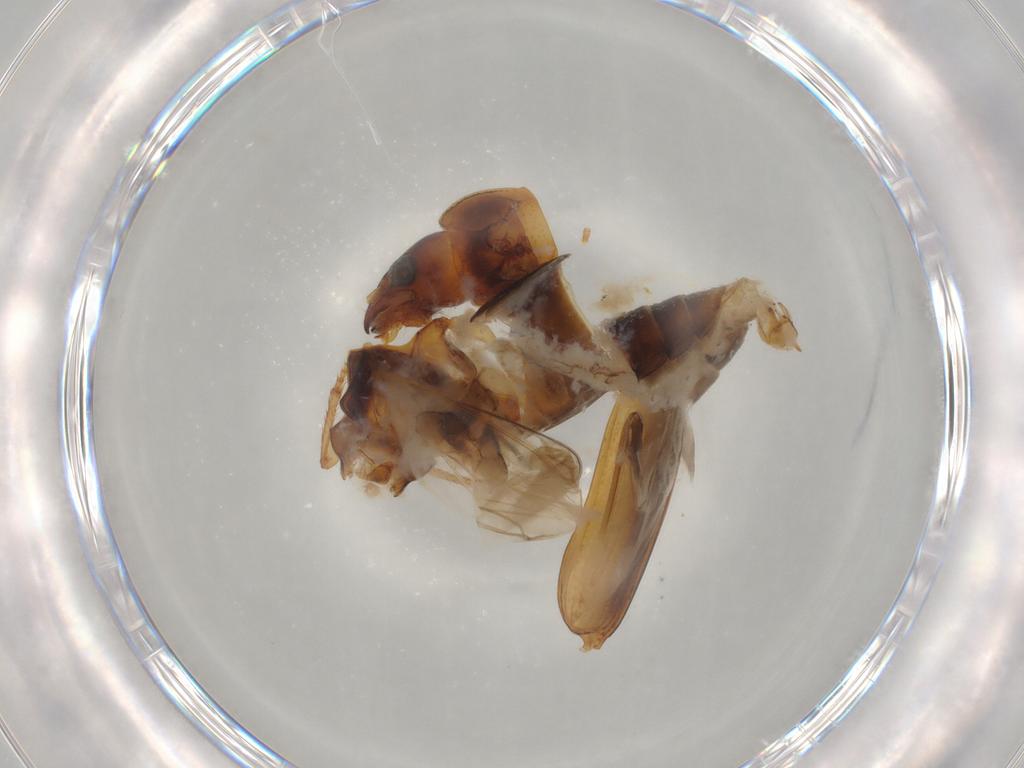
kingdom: Animalia
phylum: Arthropoda
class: Insecta
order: Coleoptera
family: Carabidae
